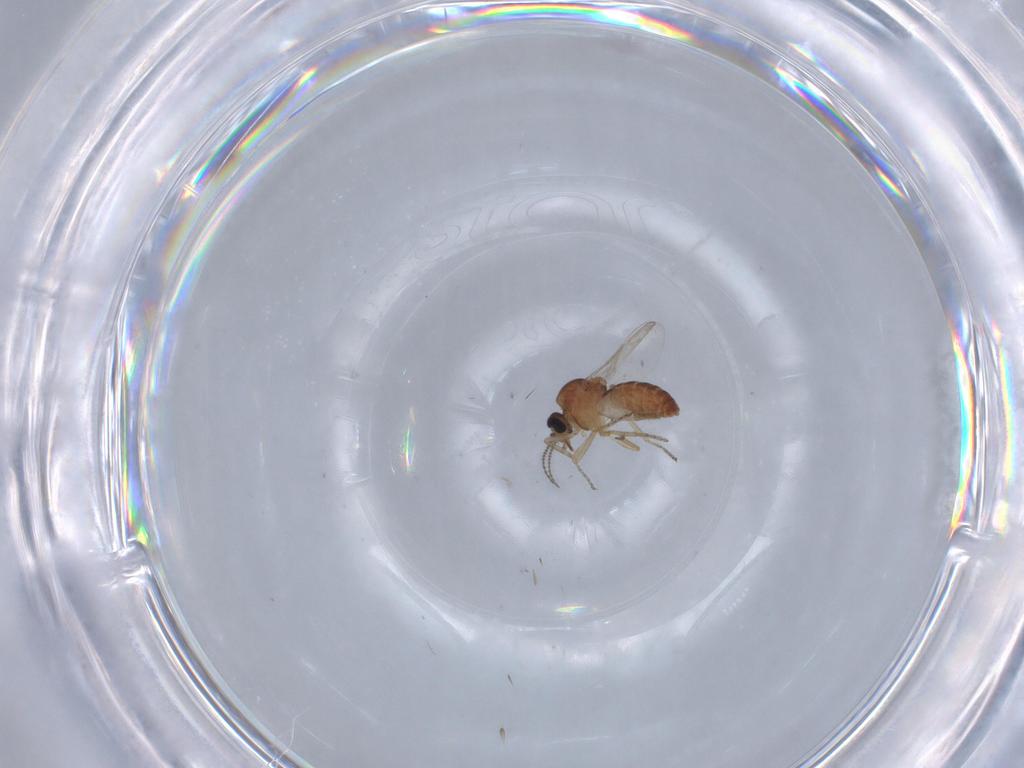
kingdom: Animalia
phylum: Arthropoda
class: Insecta
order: Diptera
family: Ceratopogonidae
